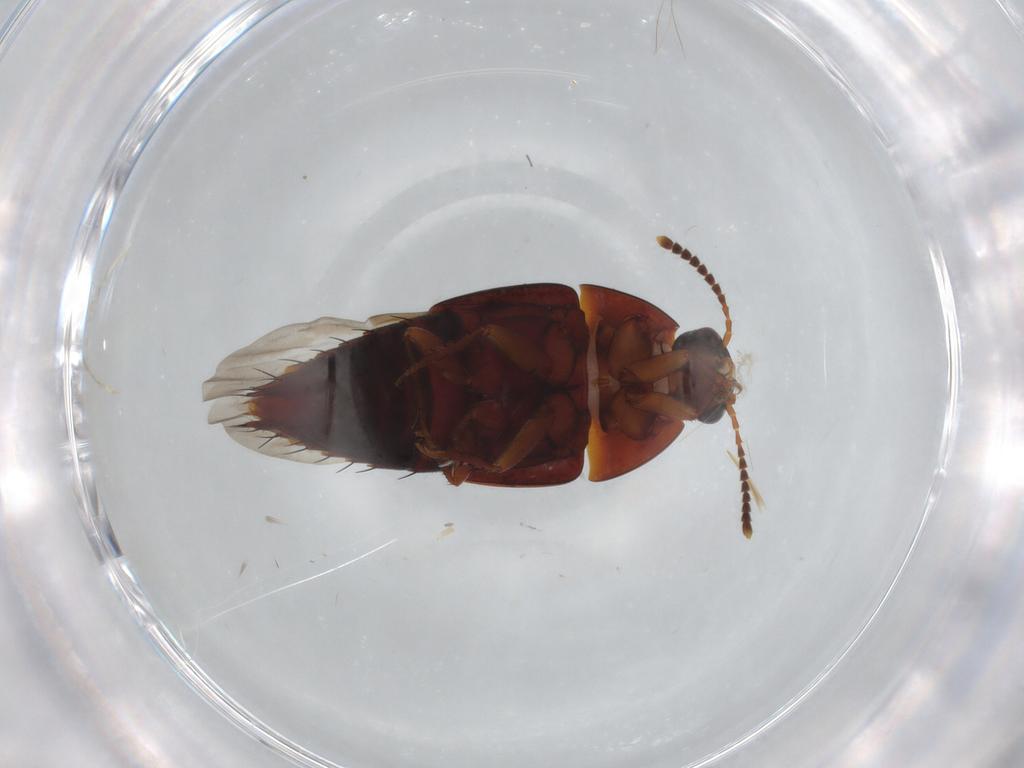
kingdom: Animalia
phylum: Arthropoda
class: Insecta
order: Coleoptera
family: Staphylinidae
